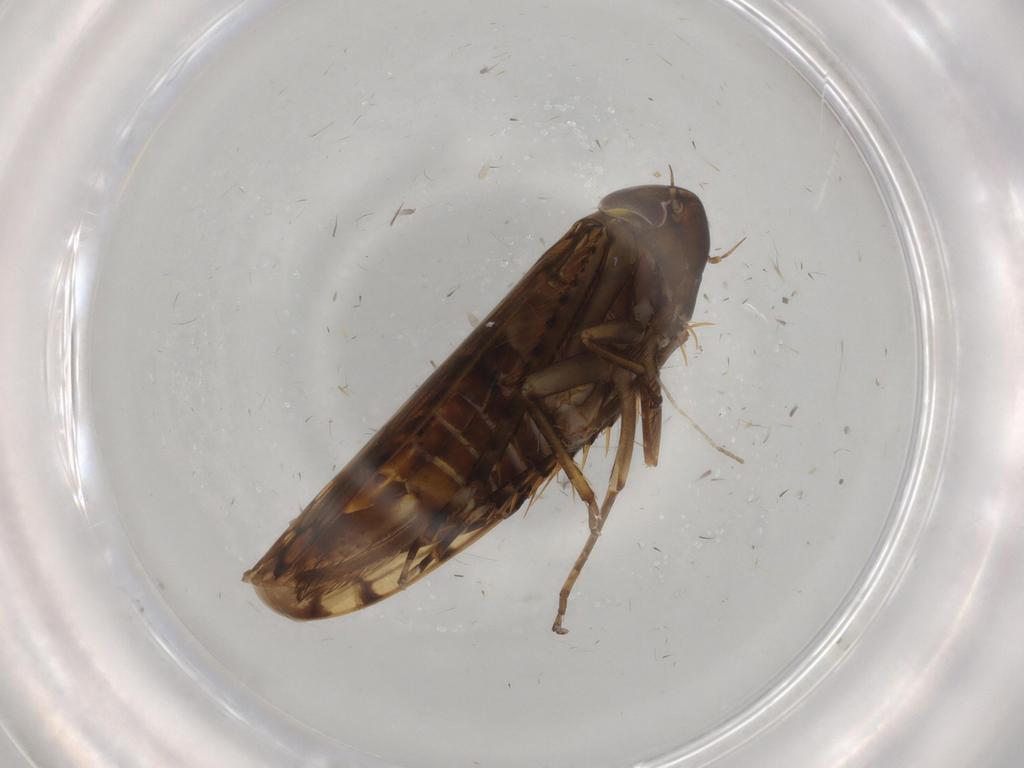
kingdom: Animalia
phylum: Arthropoda
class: Insecta
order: Hemiptera
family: Cicadellidae
